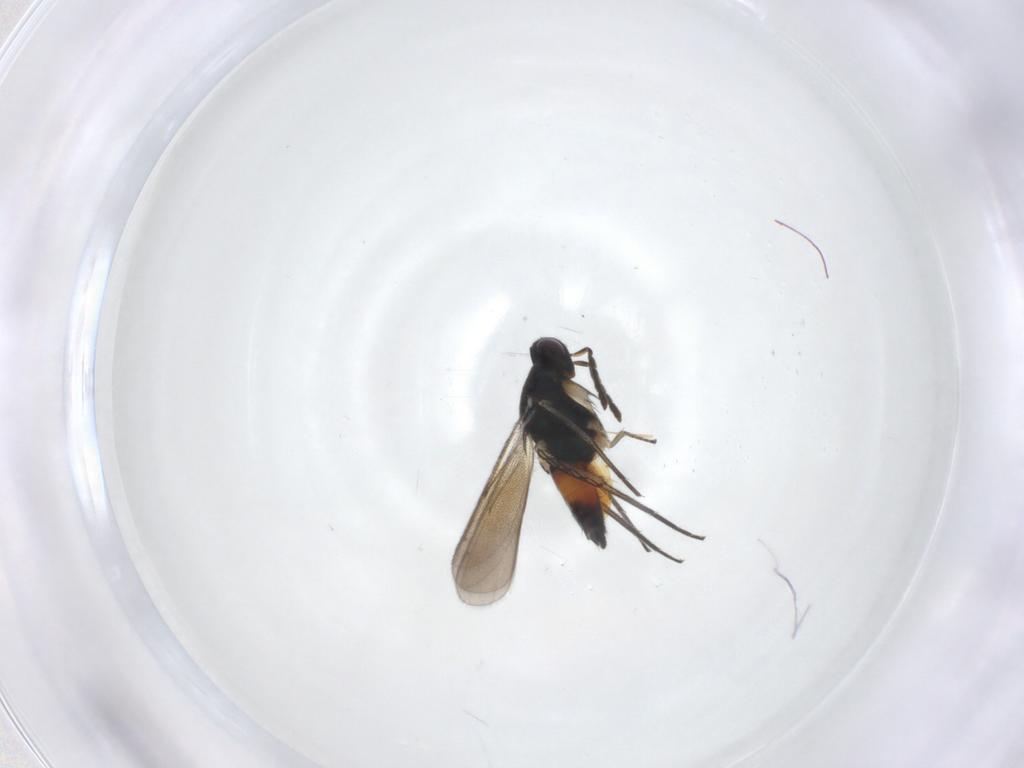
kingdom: Animalia
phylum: Arthropoda
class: Insecta
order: Hymenoptera
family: Eulophidae
